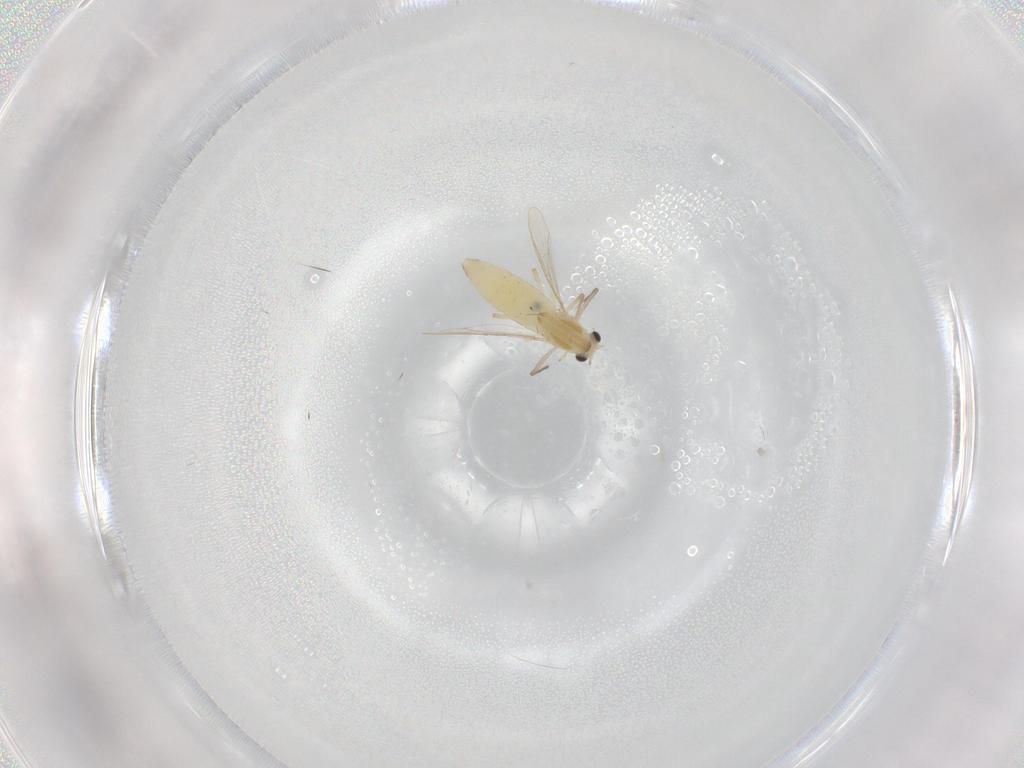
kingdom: Animalia
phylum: Arthropoda
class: Insecta
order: Diptera
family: Chironomidae
